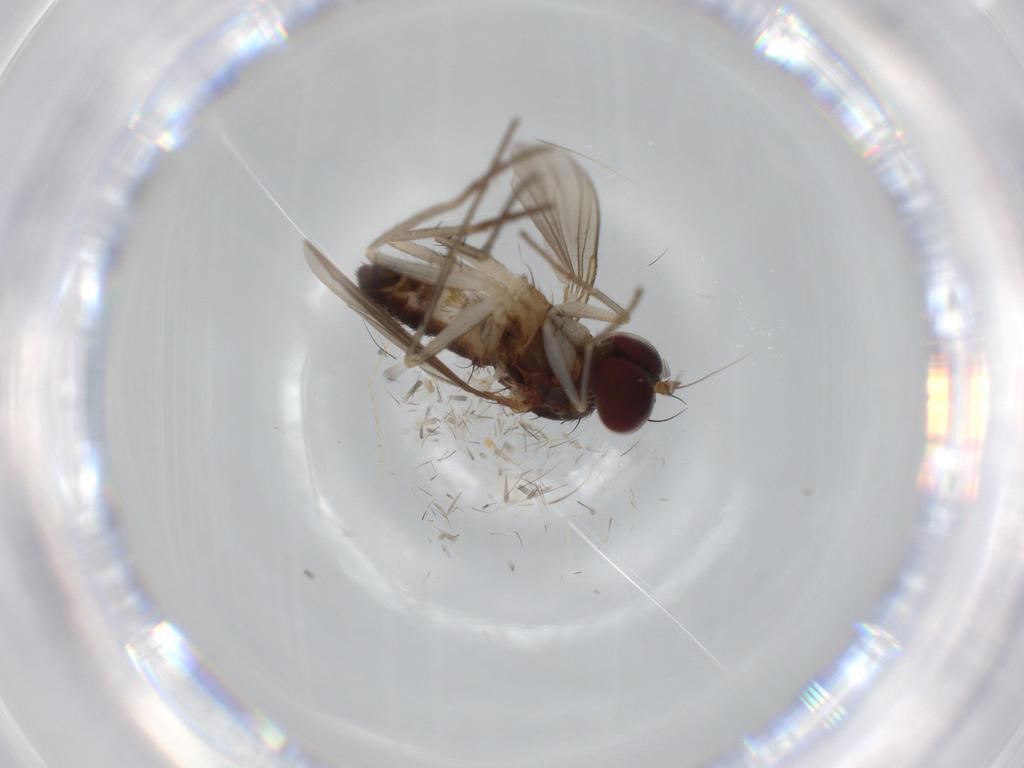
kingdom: Animalia
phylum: Arthropoda
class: Insecta
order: Diptera
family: Dolichopodidae
